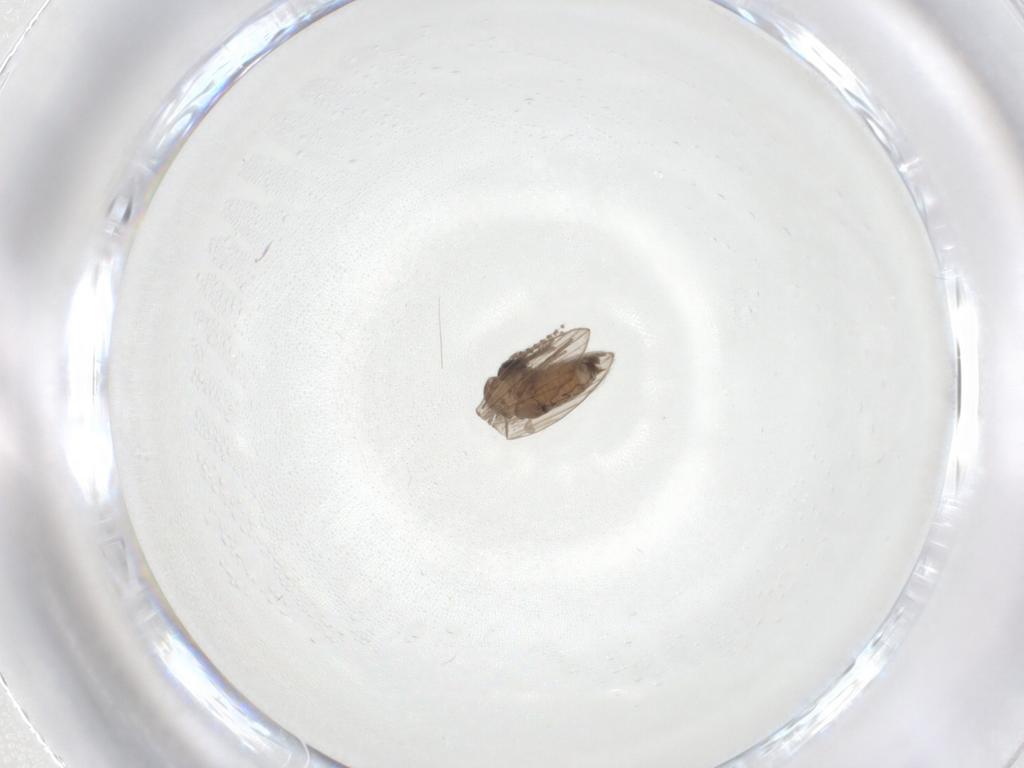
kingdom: Animalia
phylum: Arthropoda
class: Insecta
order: Diptera
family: Psychodidae
